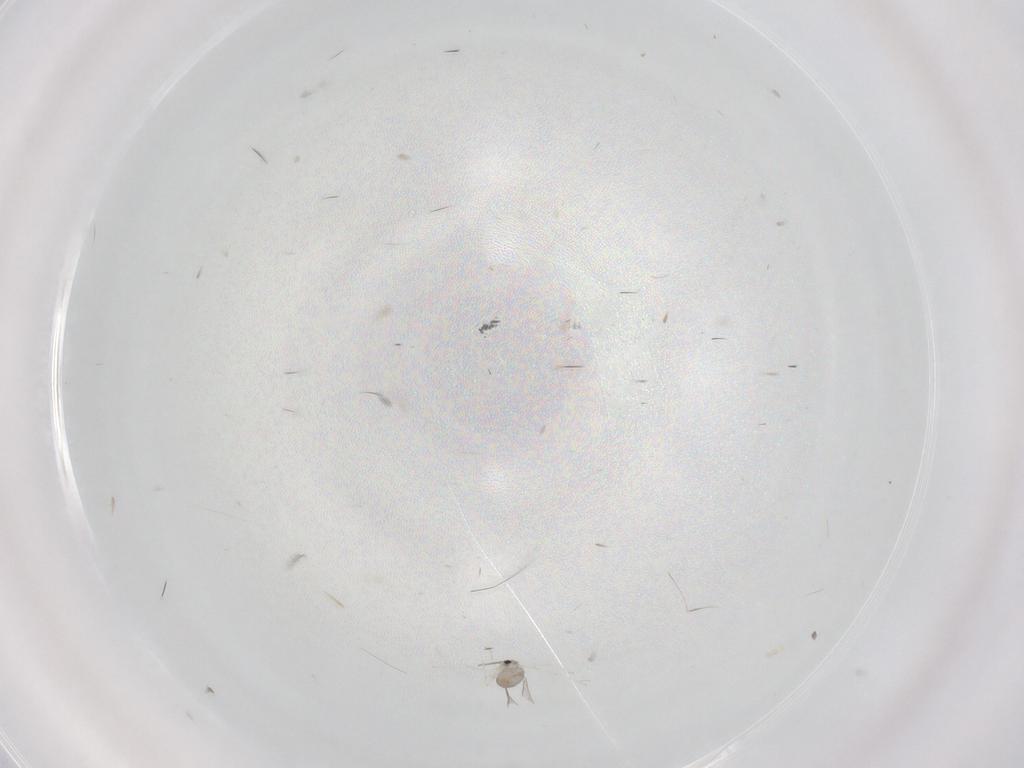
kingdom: Animalia
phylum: Arthropoda
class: Insecta
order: Diptera
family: Cecidomyiidae
